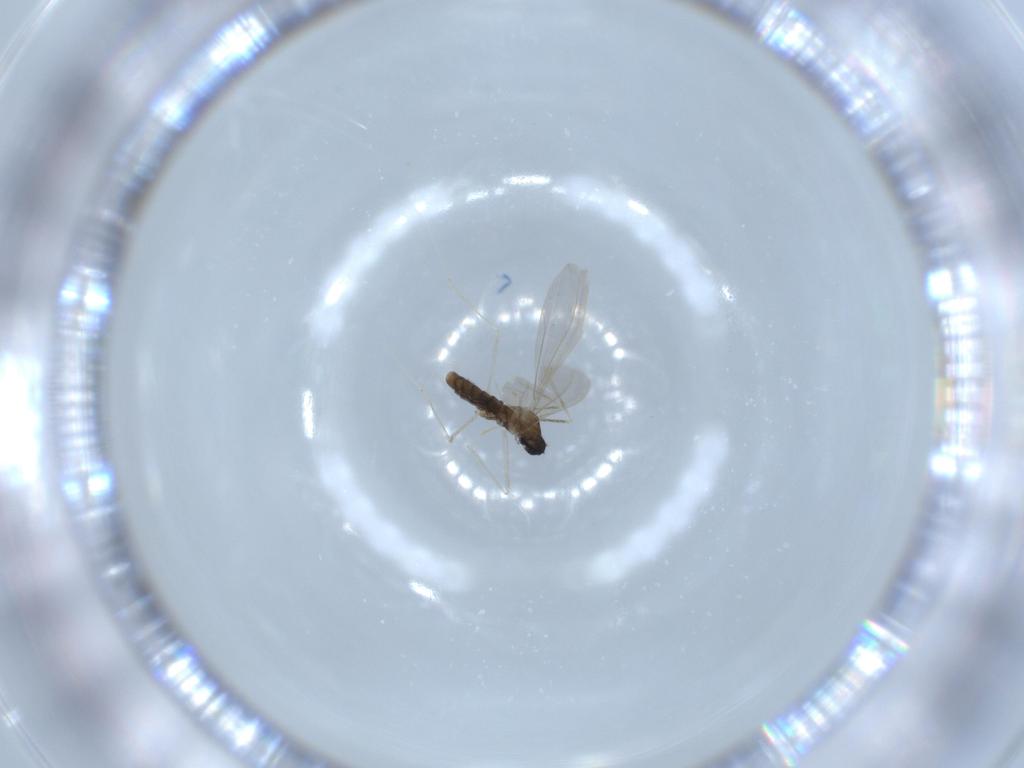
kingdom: Animalia
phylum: Arthropoda
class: Insecta
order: Diptera
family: Cecidomyiidae
